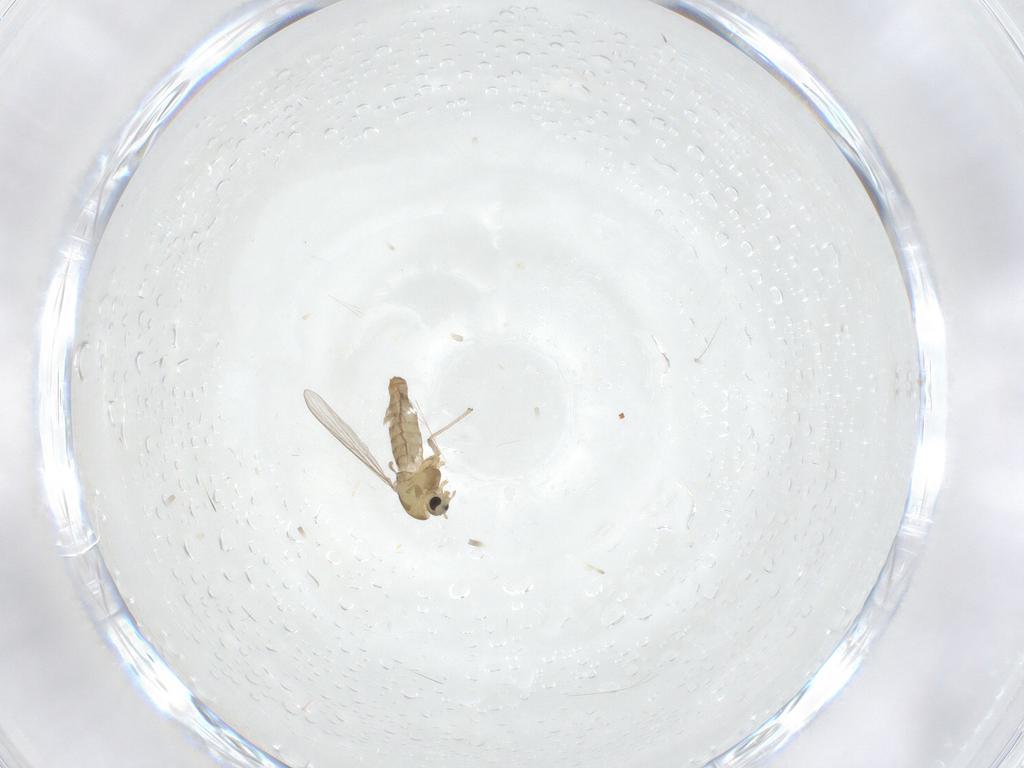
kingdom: Animalia
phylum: Arthropoda
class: Insecta
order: Diptera
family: Chironomidae
